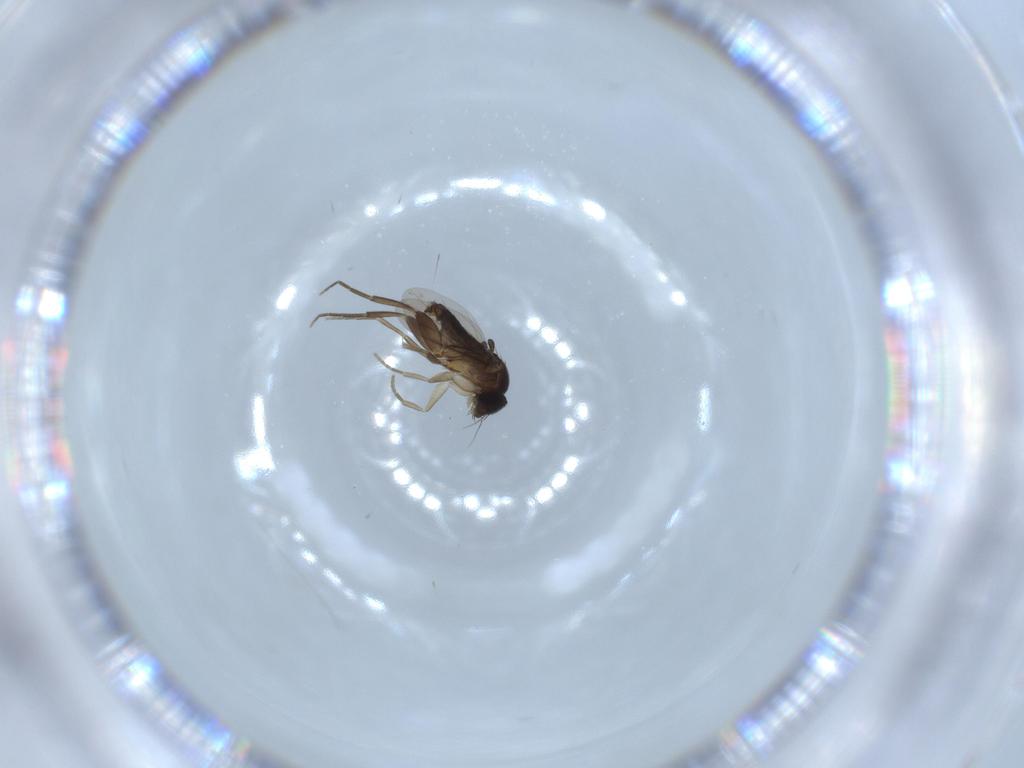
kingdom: Animalia
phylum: Arthropoda
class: Insecta
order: Diptera
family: Phoridae
